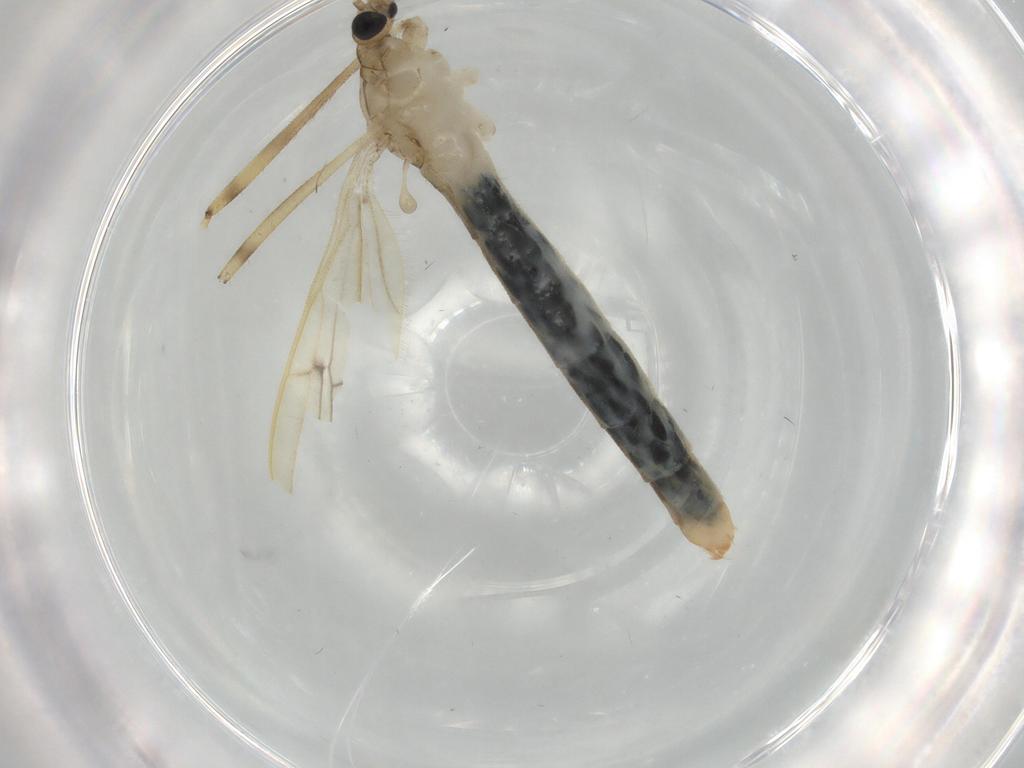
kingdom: Animalia
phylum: Arthropoda
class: Insecta
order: Diptera
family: Limoniidae
